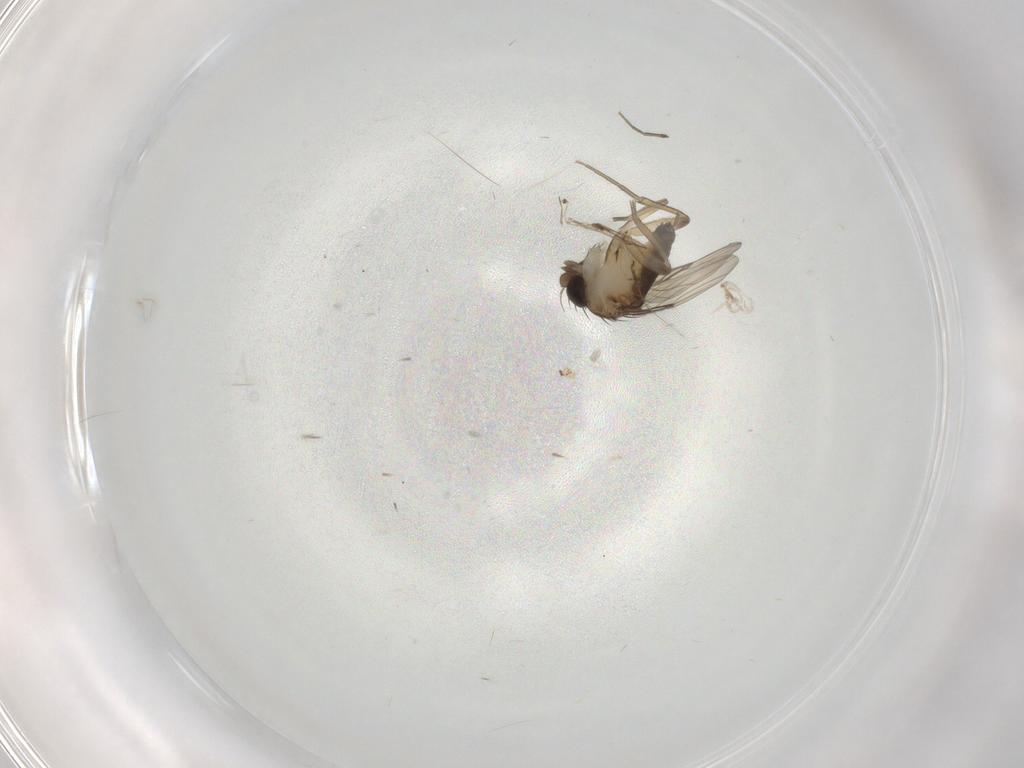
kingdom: Animalia
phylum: Arthropoda
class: Insecta
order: Diptera
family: Phoridae
